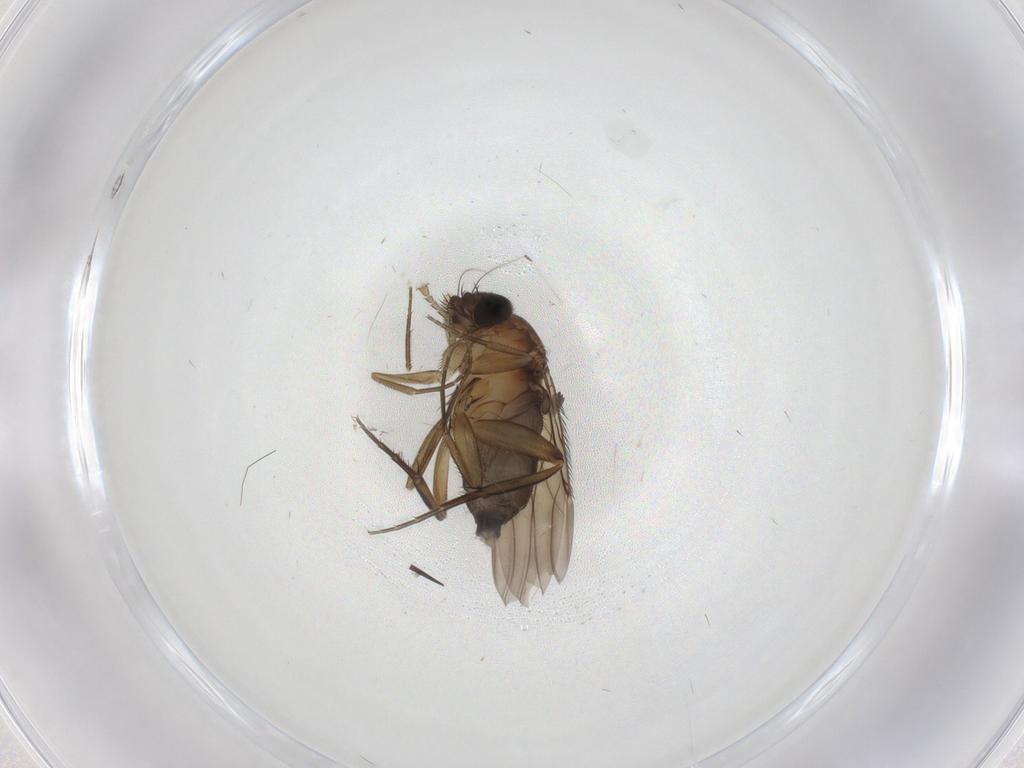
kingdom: Animalia
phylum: Arthropoda
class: Insecta
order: Diptera
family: Phoridae
